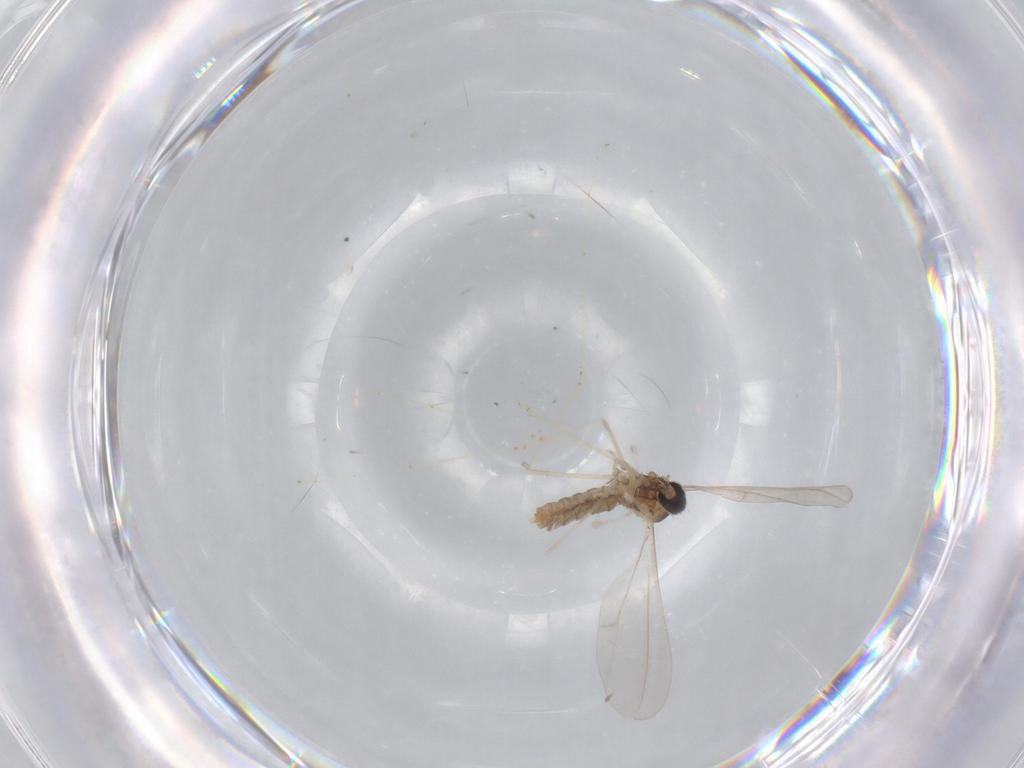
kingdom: Animalia
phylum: Arthropoda
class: Insecta
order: Diptera
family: Cecidomyiidae
